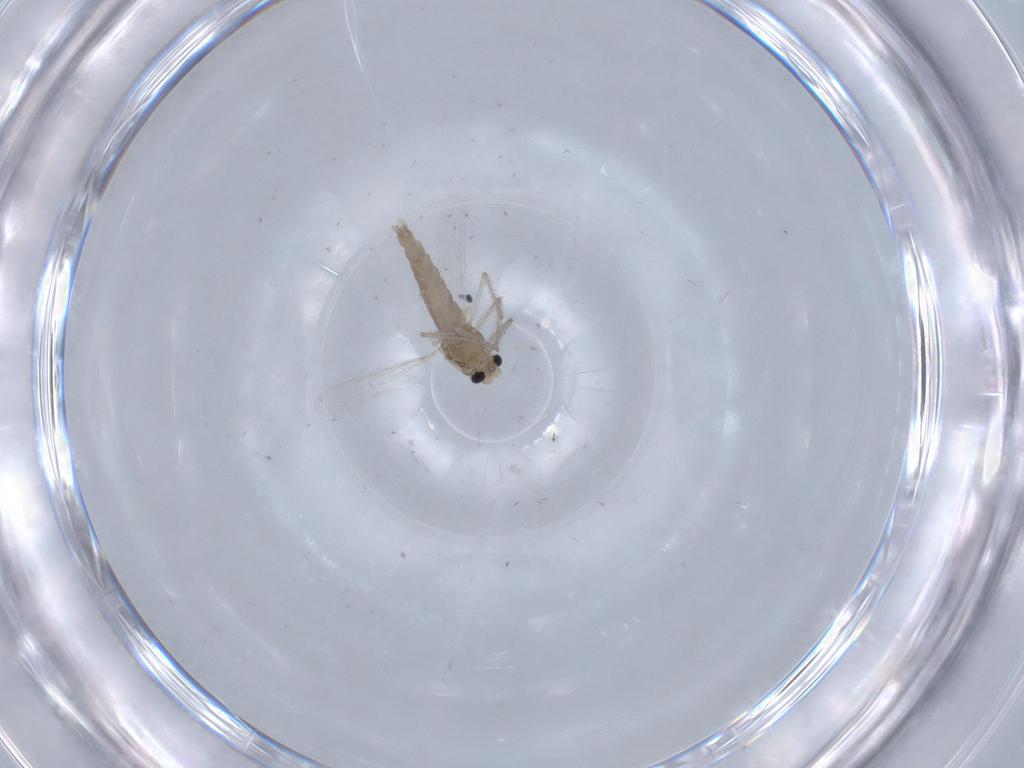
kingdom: Animalia
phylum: Arthropoda
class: Insecta
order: Diptera
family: Chironomidae
